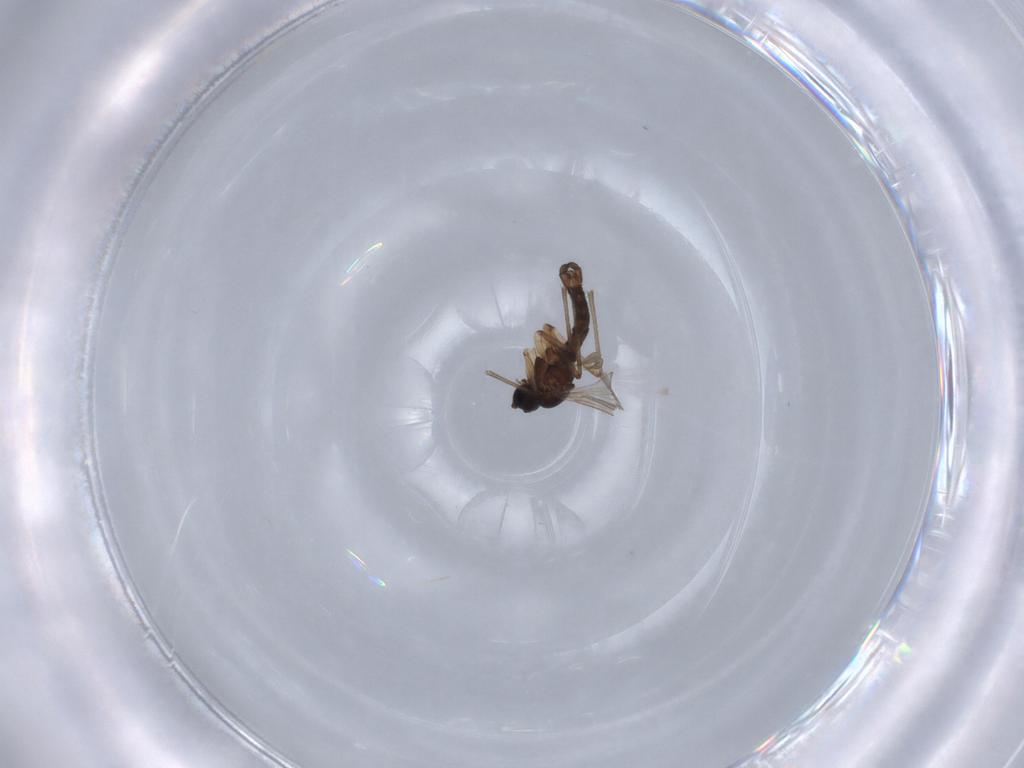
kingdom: Animalia
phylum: Arthropoda
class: Insecta
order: Diptera
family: Sciaridae
